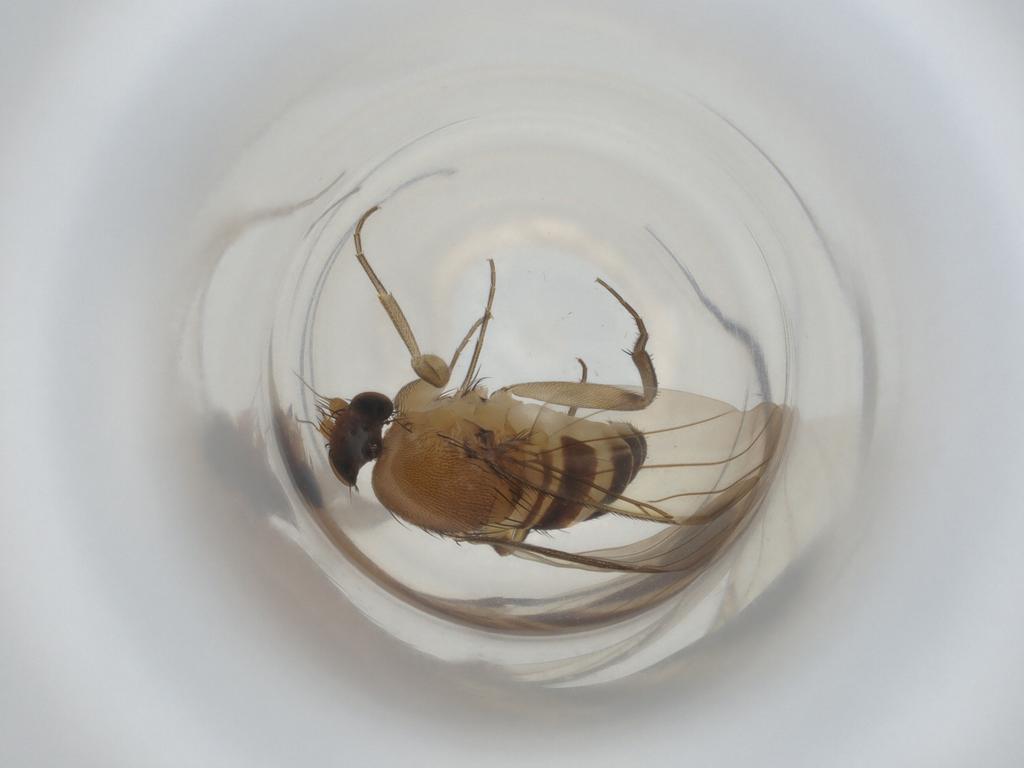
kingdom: Animalia
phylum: Arthropoda
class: Insecta
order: Diptera
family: Phoridae
